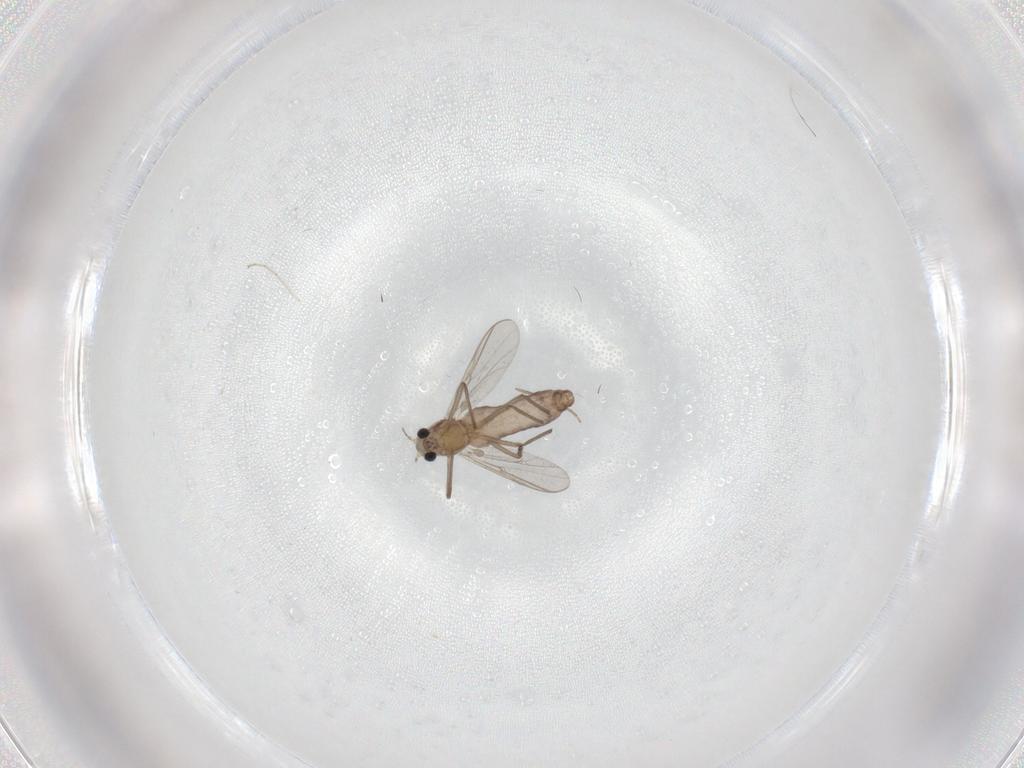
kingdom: Animalia
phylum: Arthropoda
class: Insecta
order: Diptera
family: Chironomidae
